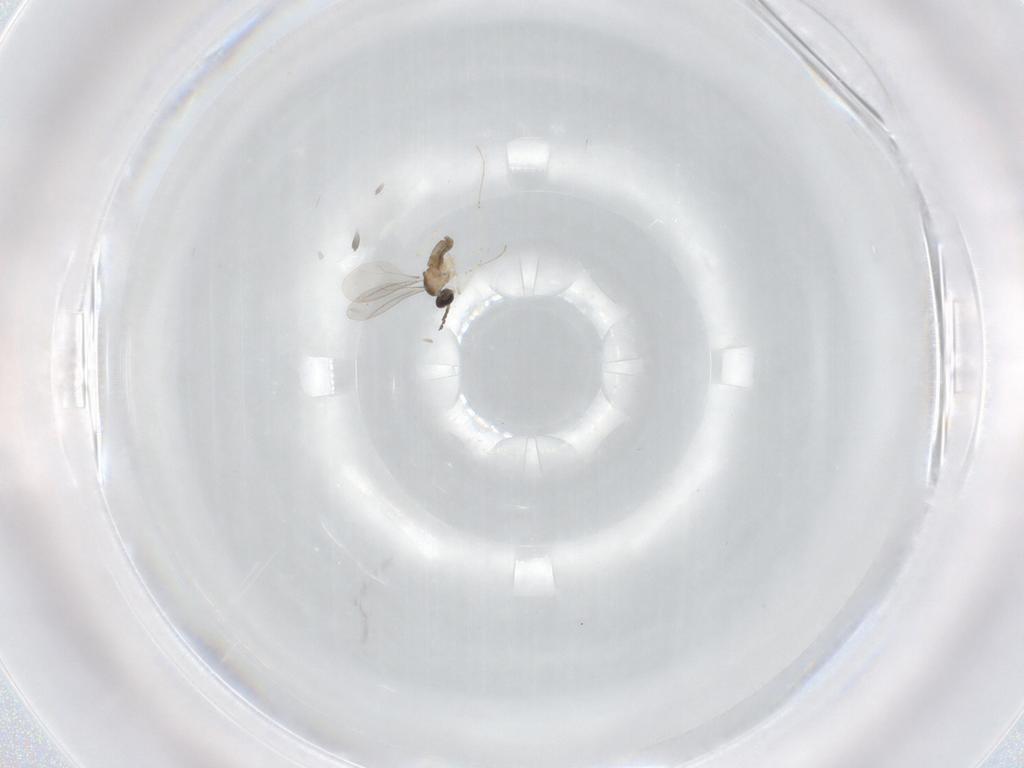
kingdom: Animalia
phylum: Arthropoda
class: Insecta
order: Diptera
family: Cecidomyiidae
